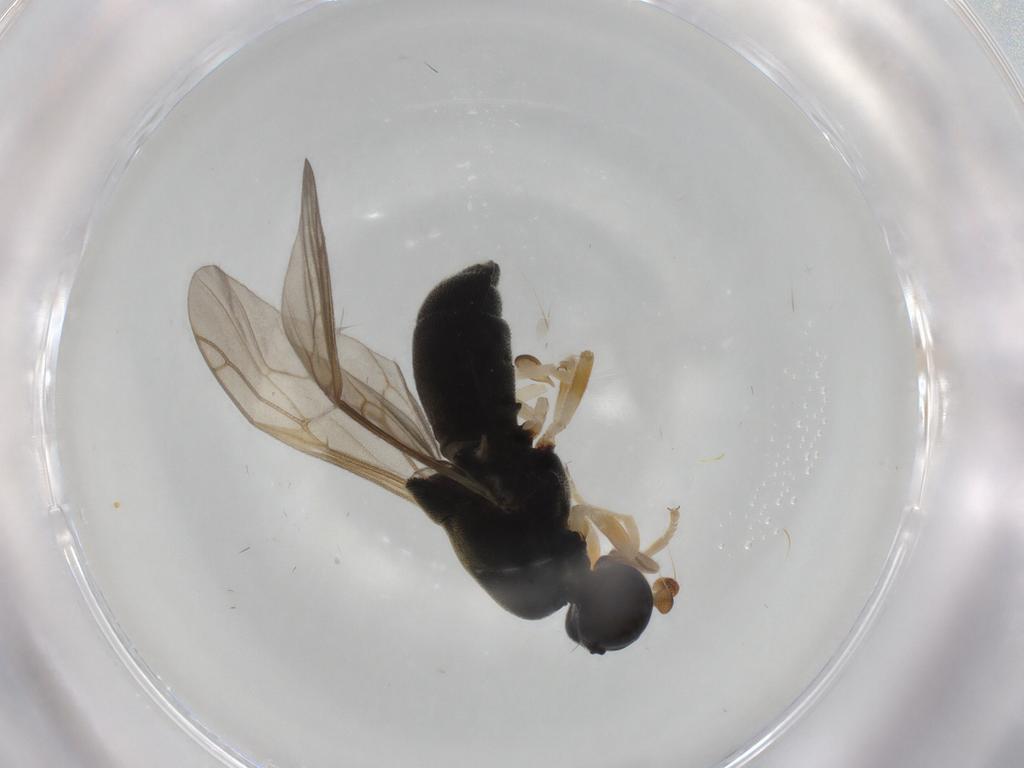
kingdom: Animalia
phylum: Arthropoda
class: Insecta
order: Diptera
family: Stratiomyidae
